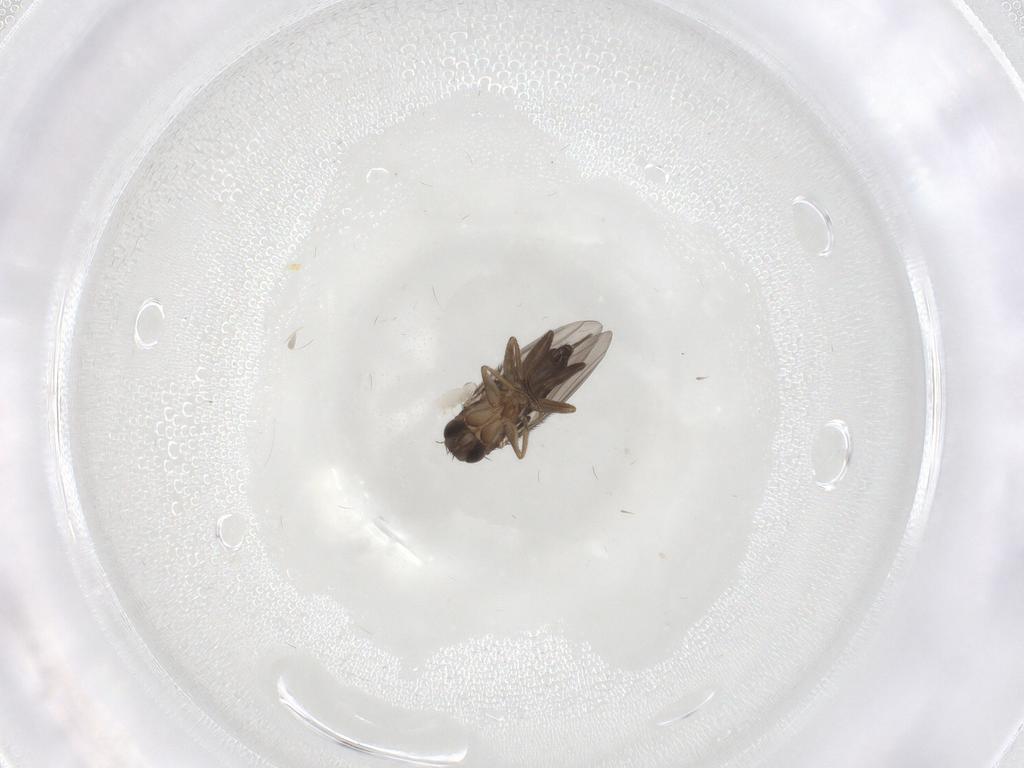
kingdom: Animalia
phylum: Arthropoda
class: Insecta
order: Diptera
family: Phoridae
